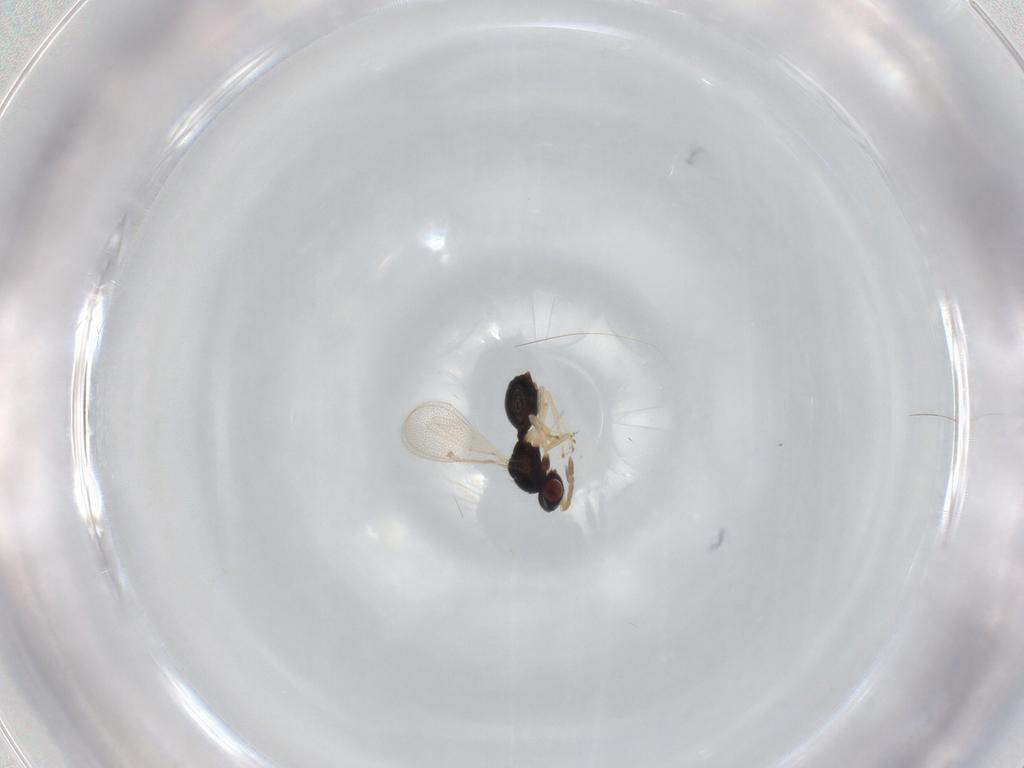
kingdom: Animalia
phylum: Arthropoda
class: Insecta
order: Hymenoptera
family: Eulophidae
